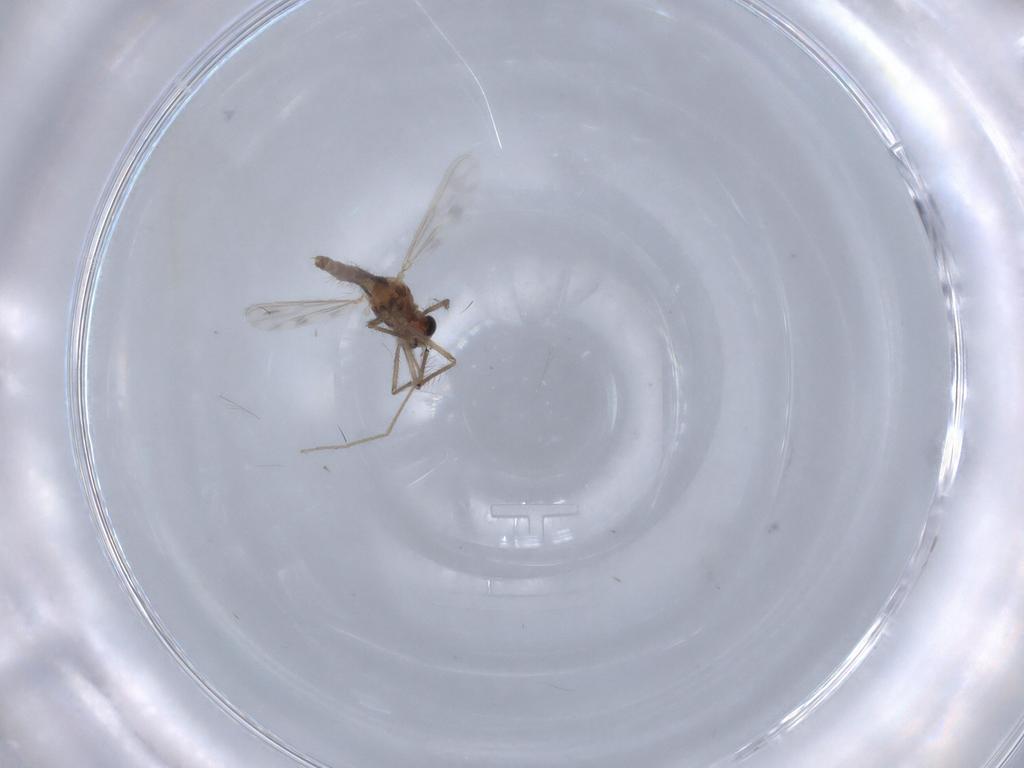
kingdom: Animalia
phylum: Arthropoda
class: Insecta
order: Diptera
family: Chironomidae
